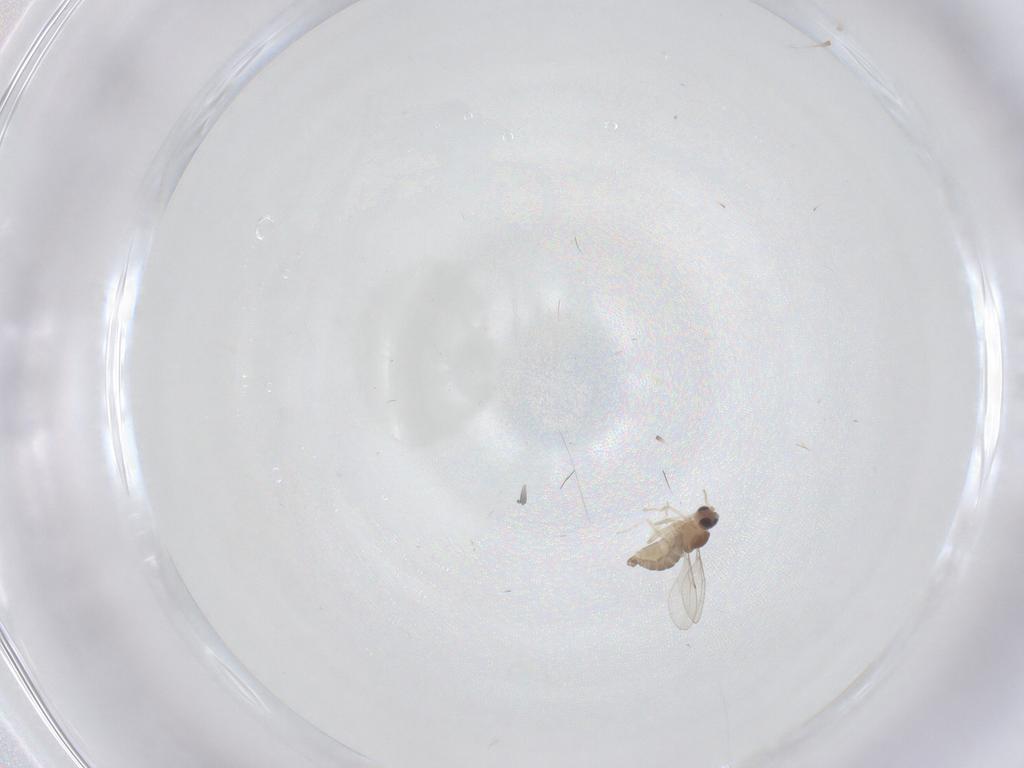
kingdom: Animalia
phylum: Arthropoda
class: Insecta
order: Diptera
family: Cecidomyiidae
